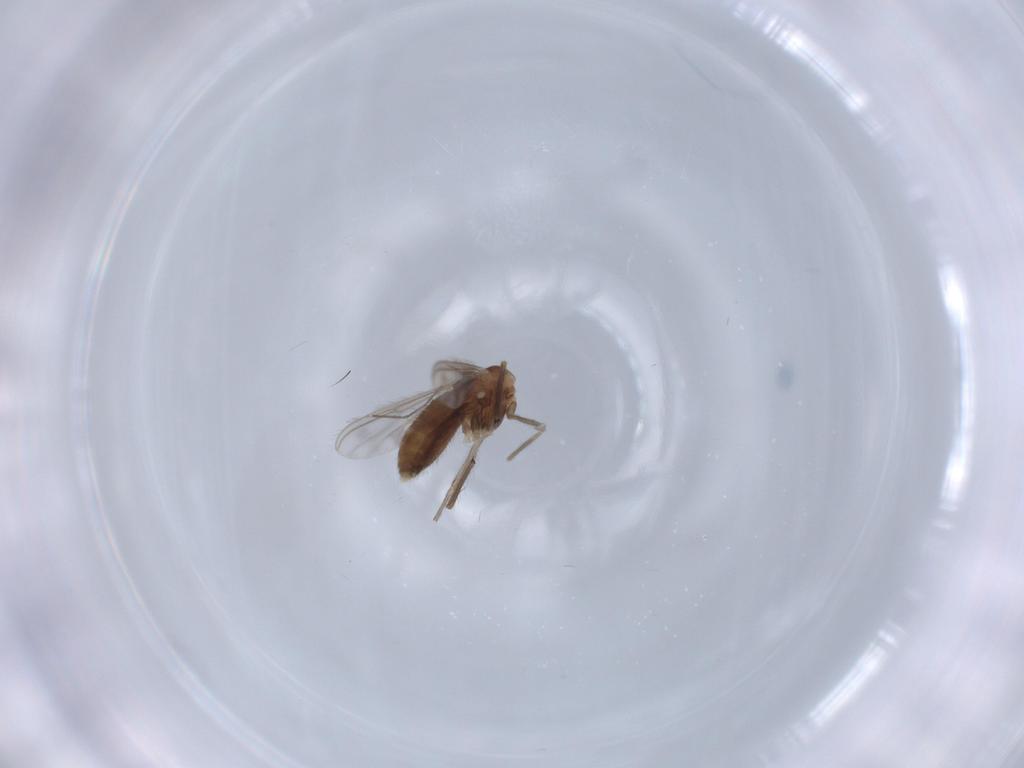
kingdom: Animalia
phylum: Arthropoda
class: Insecta
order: Diptera
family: Chironomidae
